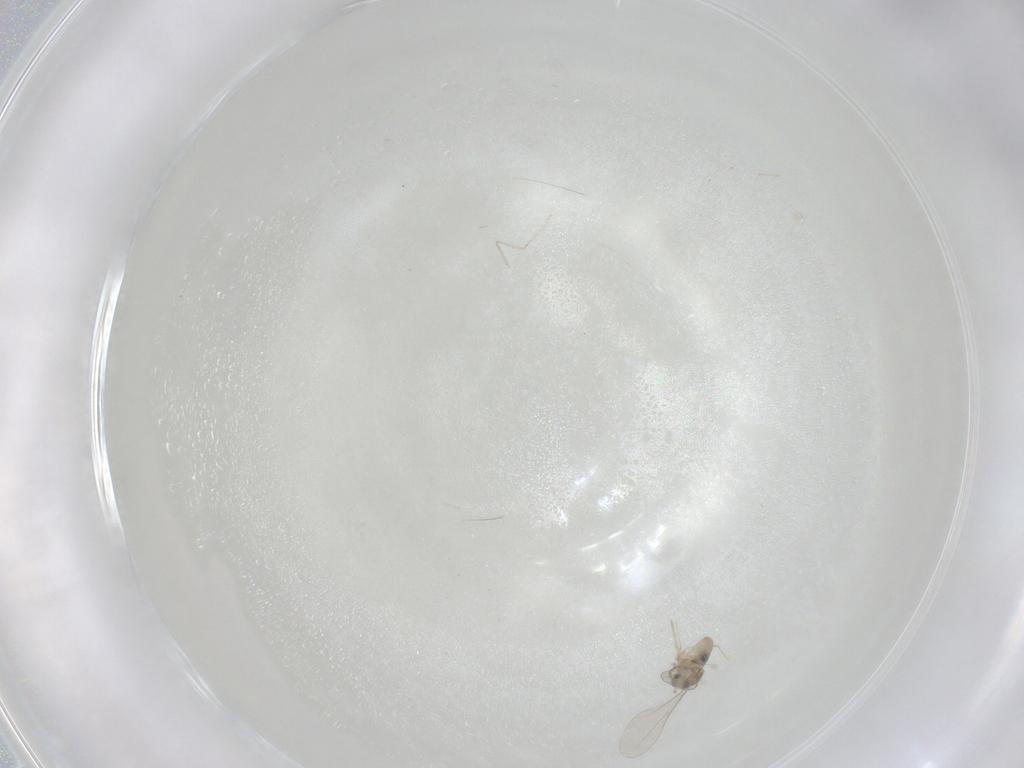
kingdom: Animalia
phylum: Arthropoda
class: Insecta
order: Diptera
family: Cecidomyiidae
